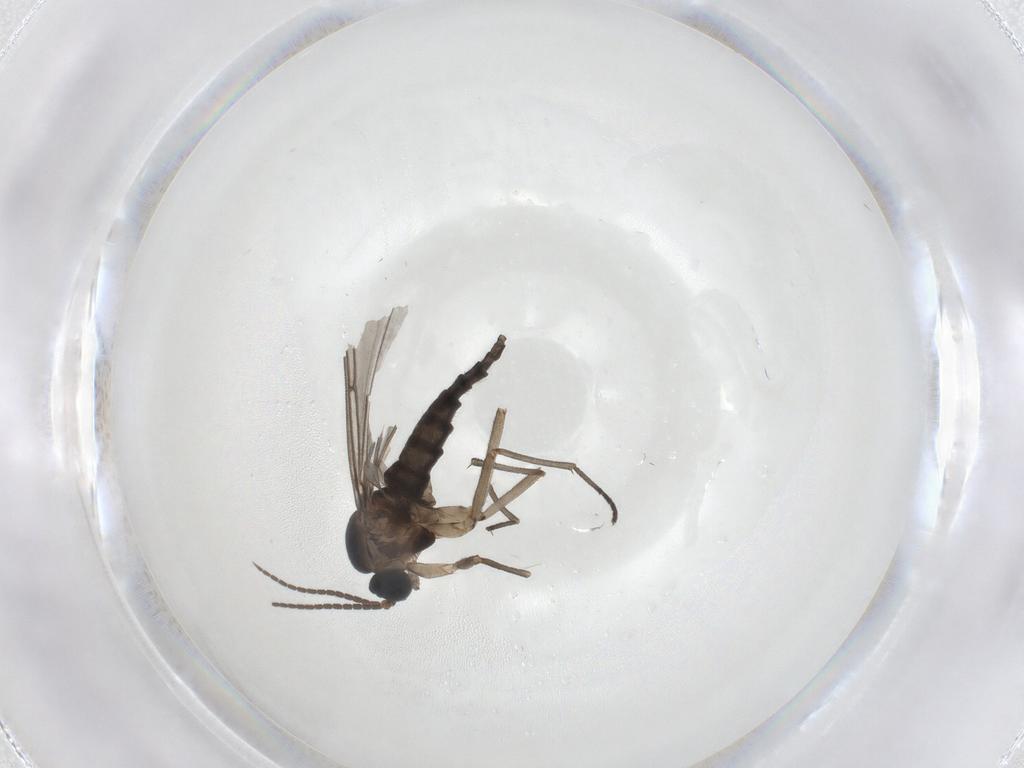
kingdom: Animalia
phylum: Arthropoda
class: Insecta
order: Diptera
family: Sciaridae
